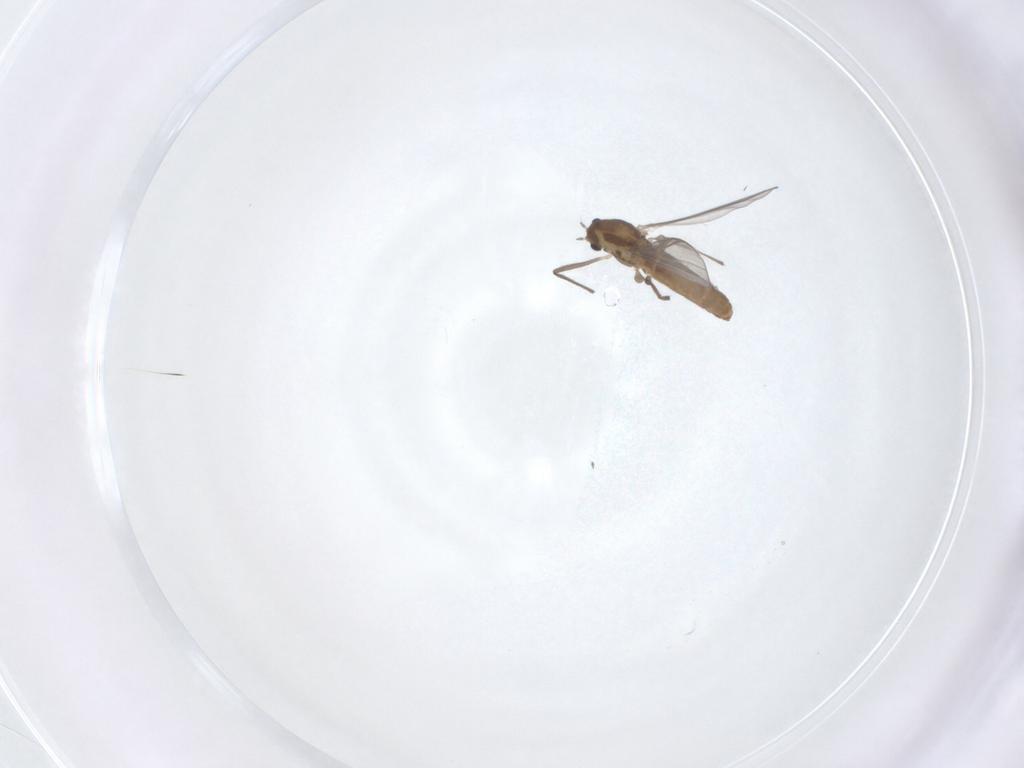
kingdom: Animalia
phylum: Arthropoda
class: Insecta
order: Diptera
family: Chironomidae
